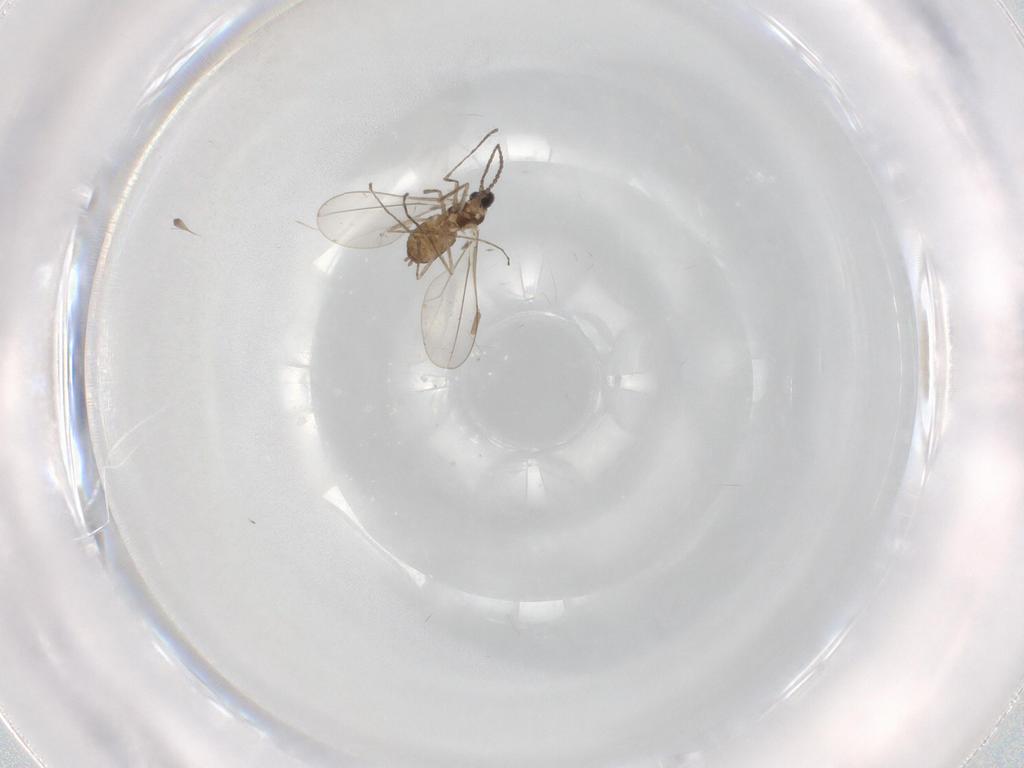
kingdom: Animalia
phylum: Arthropoda
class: Insecta
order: Diptera
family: Cecidomyiidae
